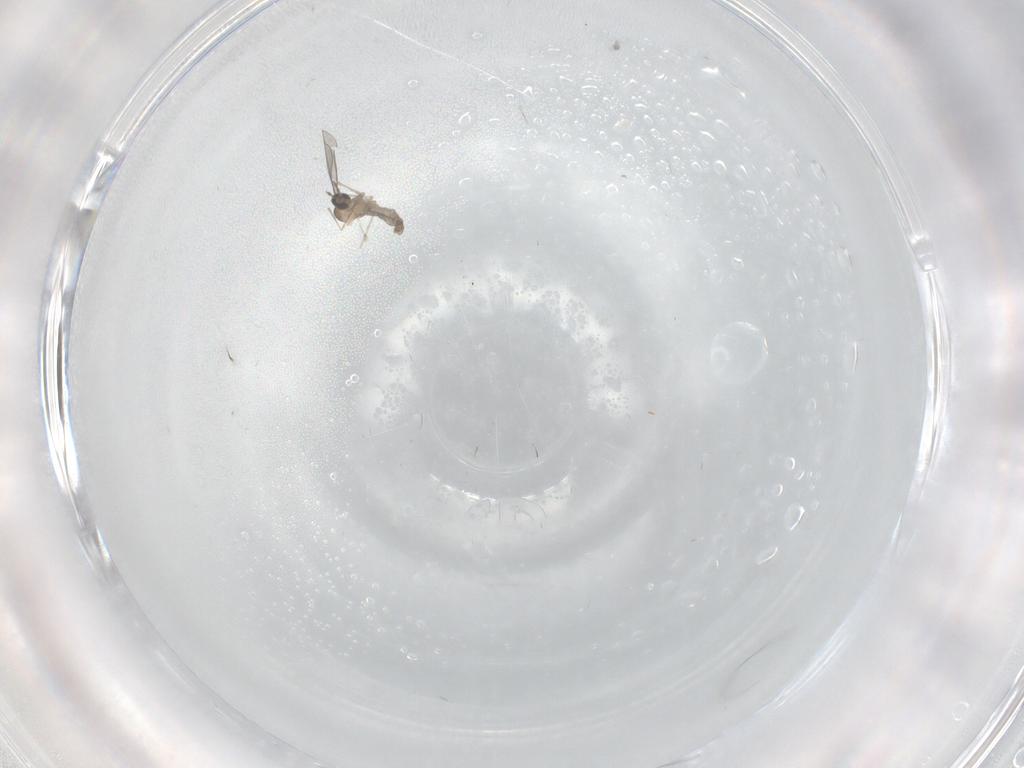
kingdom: Animalia
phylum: Arthropoda
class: Insecta
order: Diptera
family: Cecidomyiidae
